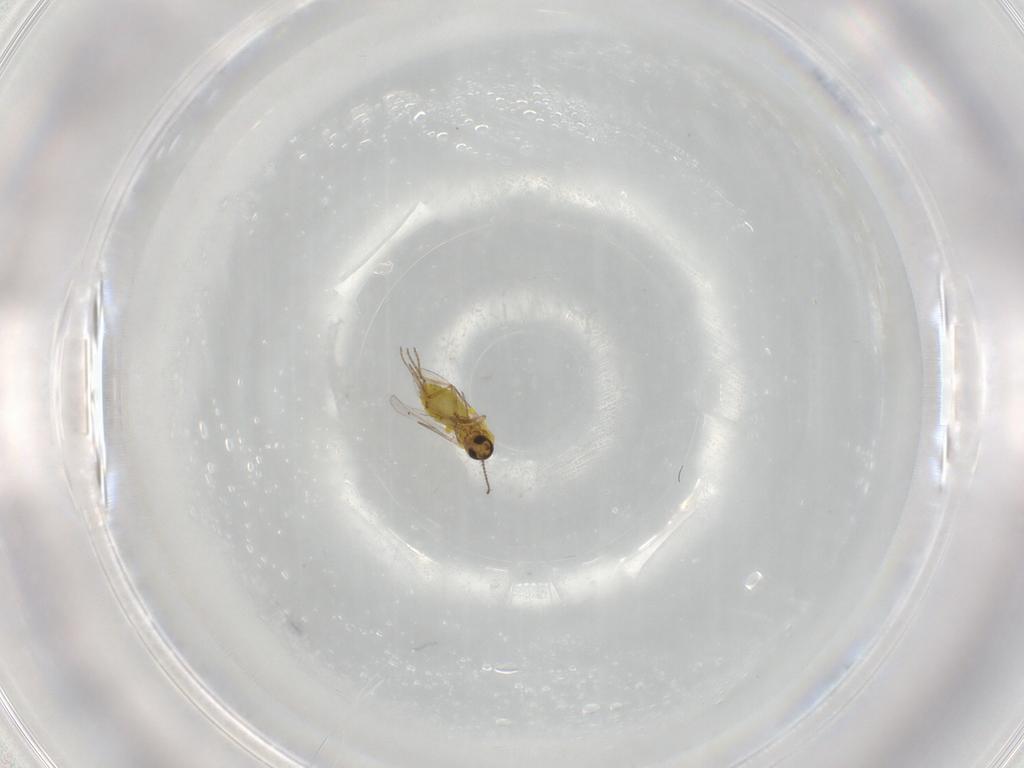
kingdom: Animalia
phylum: Arthropoda
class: Insecta
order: Diptera
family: Ceratopogonidae
